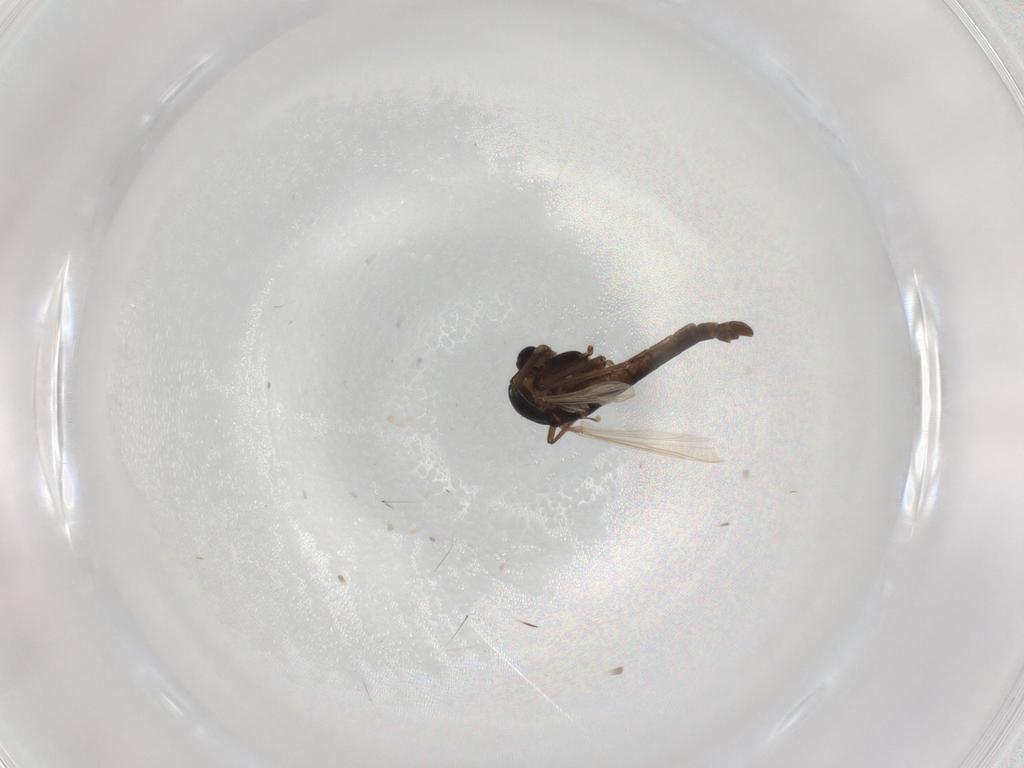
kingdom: Animalia
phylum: Arthropoda
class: Insecta
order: Diptera
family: Chironomidae
